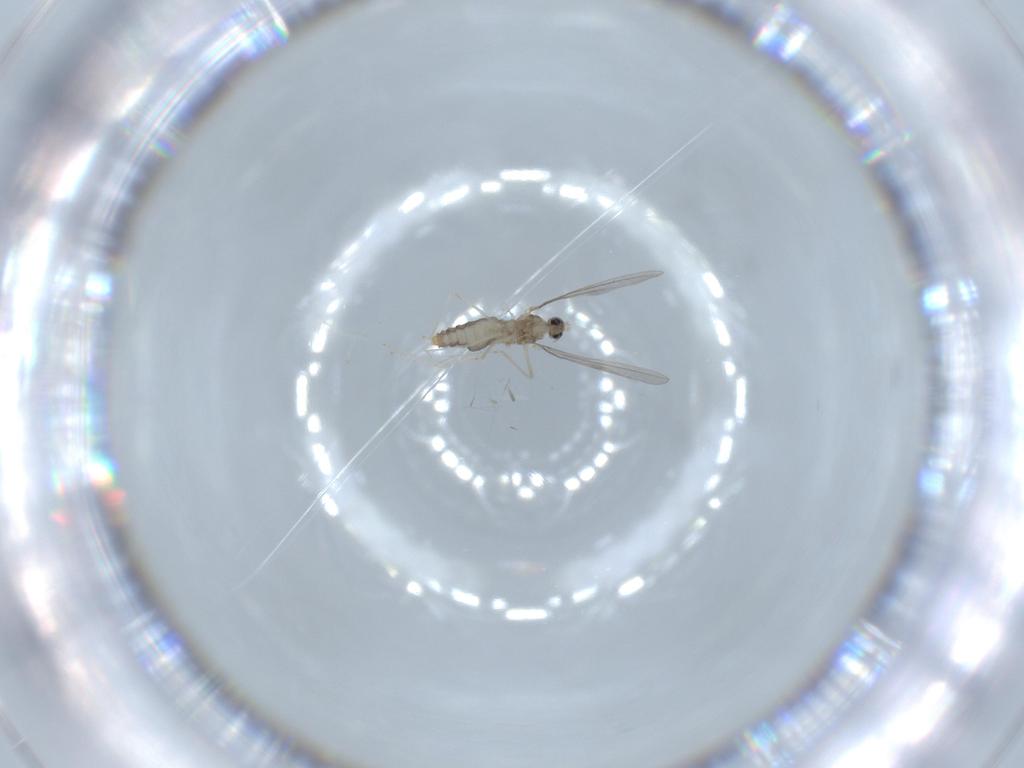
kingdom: Animalia
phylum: Arthropoda
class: Insecta
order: Diptera
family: Cecidomyiidae
